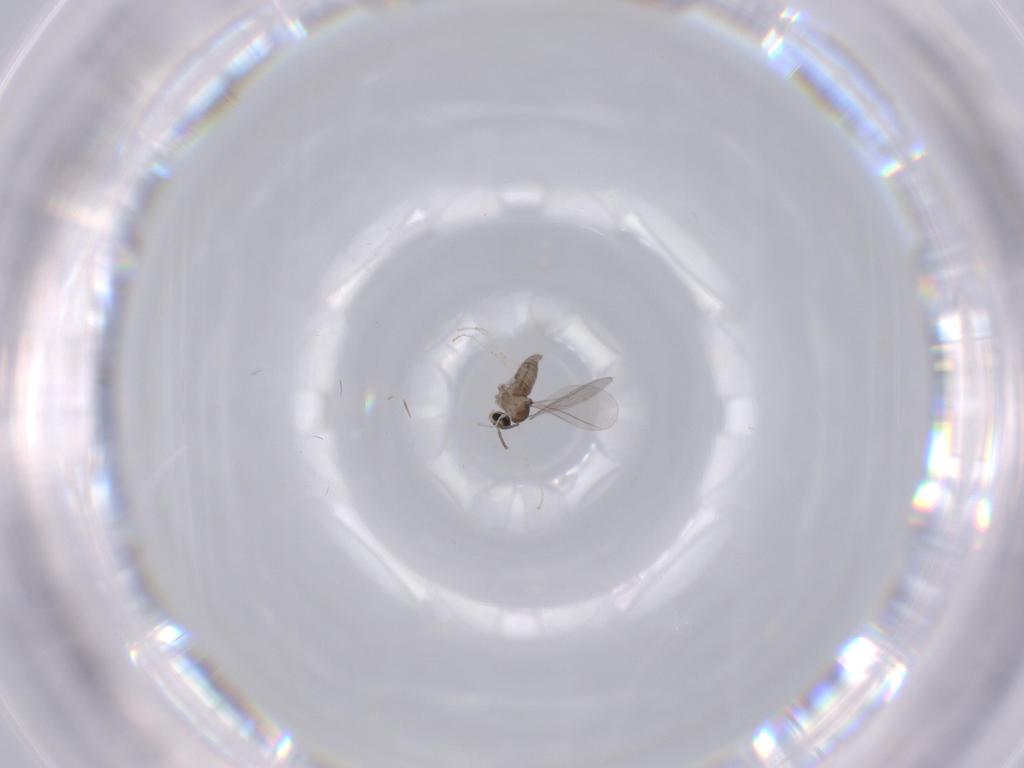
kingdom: Animalia
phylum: Arthropoda
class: Insecta
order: Diptera
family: Cecidomyiidae
